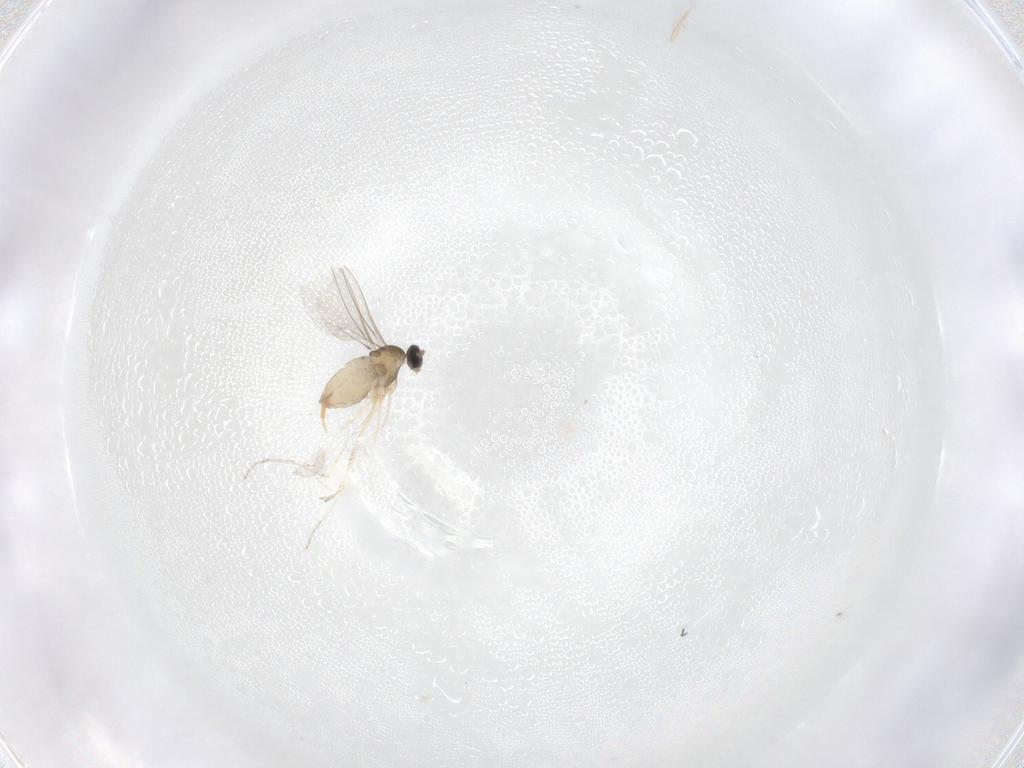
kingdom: Animalia
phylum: Arthropoda
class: Insecta
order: Diptera
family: Cecidomyiidae
